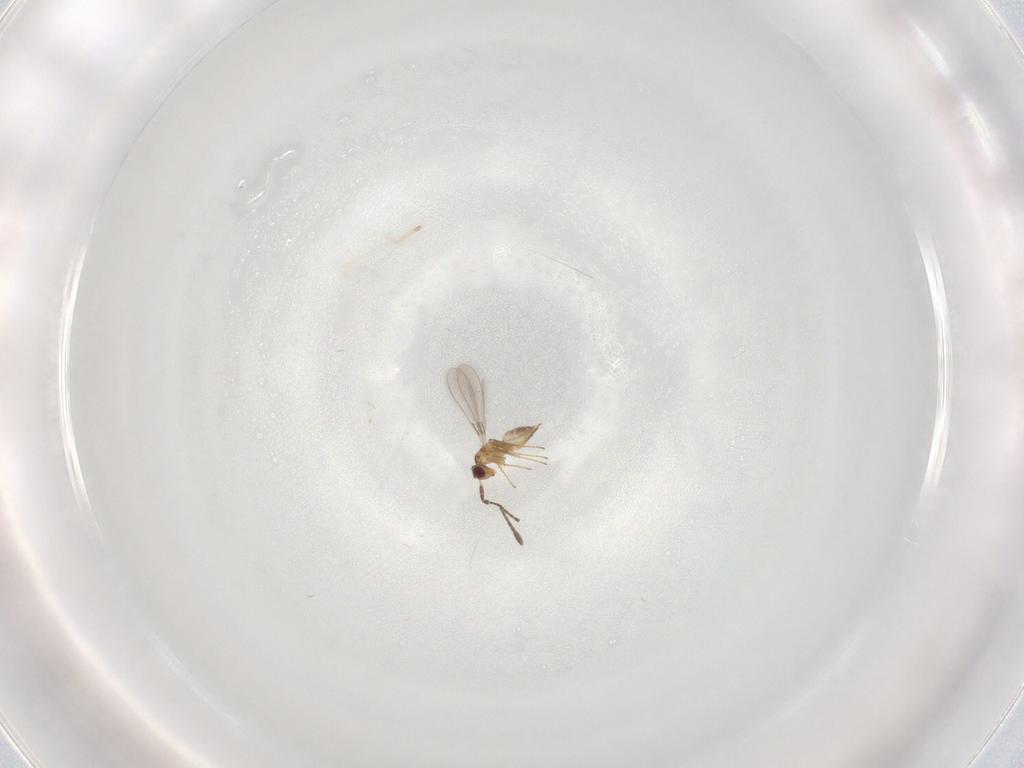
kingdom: Animalia
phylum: Arthropoda
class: Insecta
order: Hymenoptera
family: Mymaridae
